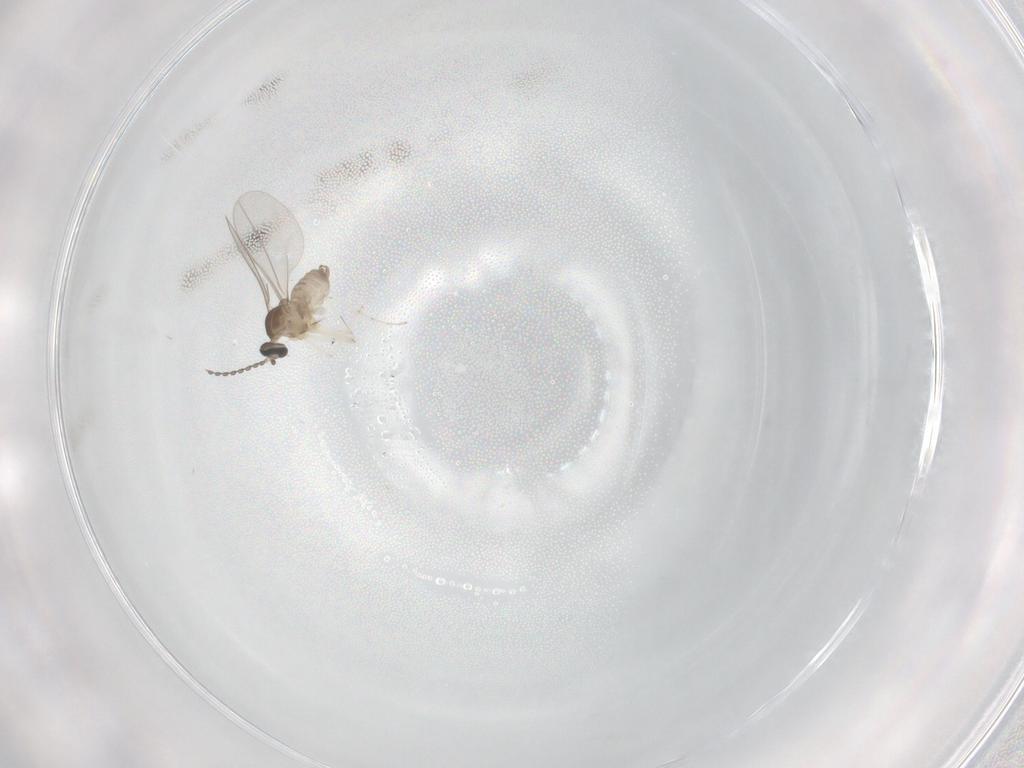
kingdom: Animalia
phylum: Arthropoda
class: Insecta
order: Diptera
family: Cecidomyiidae
